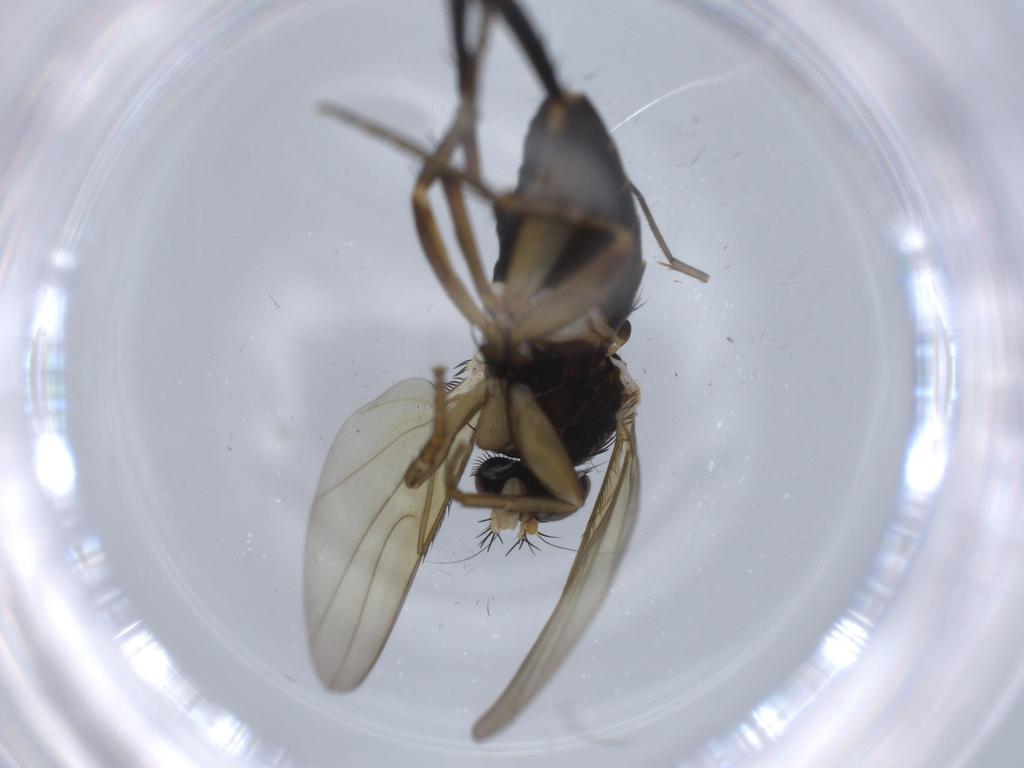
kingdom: Animalia
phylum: Arthropoda
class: Insecta
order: Diptera
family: Phoridae
